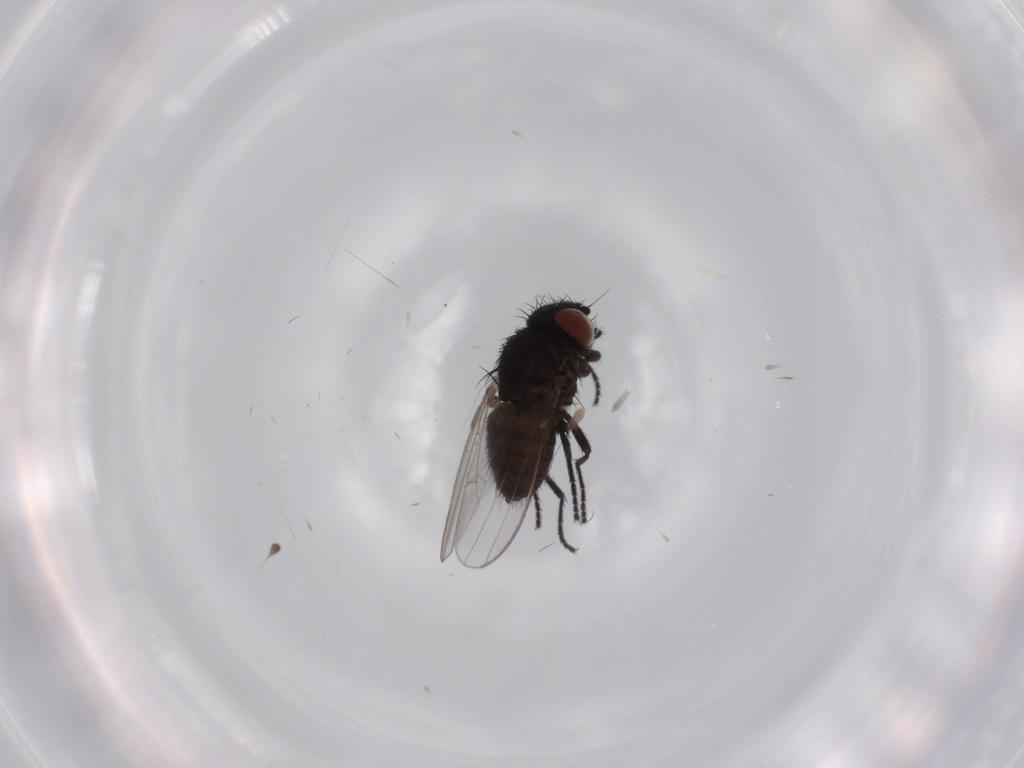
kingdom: Animalia
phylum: Arthropoda
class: Insecta
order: Diptera
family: Milichiidae
